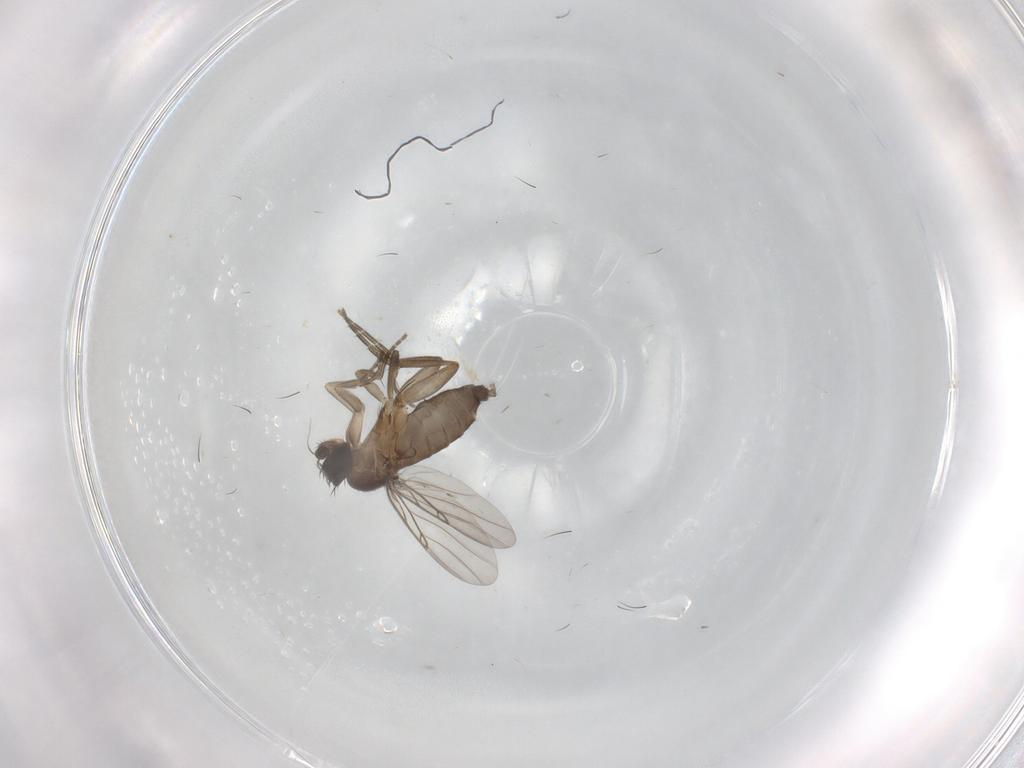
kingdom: Animalia
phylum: Arthropoda
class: Insecta
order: Diptera
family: Phoridae
